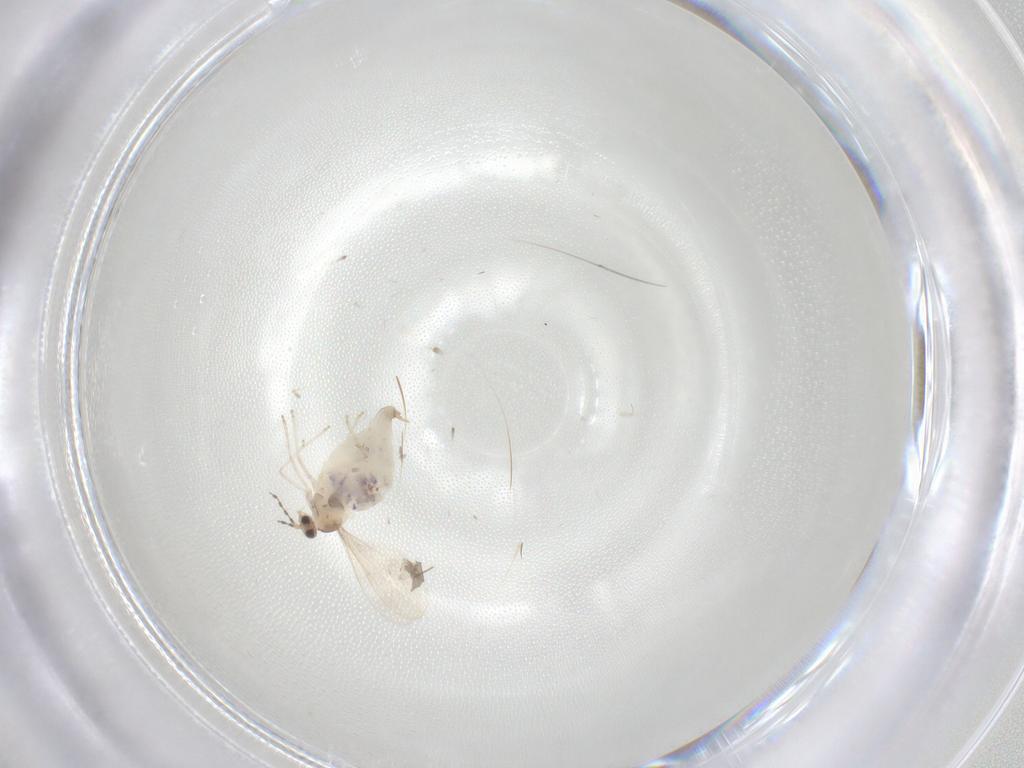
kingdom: Animalia
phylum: Arthropoda
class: Insecta
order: Diptera
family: Cecidomyiidae
